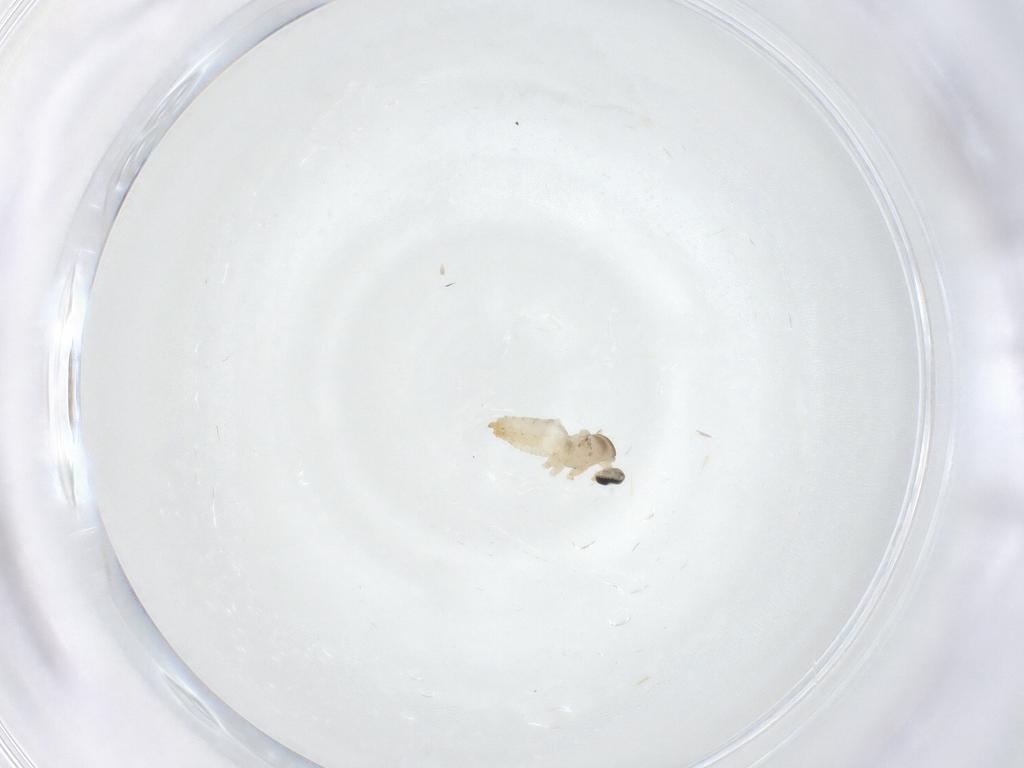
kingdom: Animalia
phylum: Arthropoda
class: Insecta
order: Diptera
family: Cecidomyiidae
